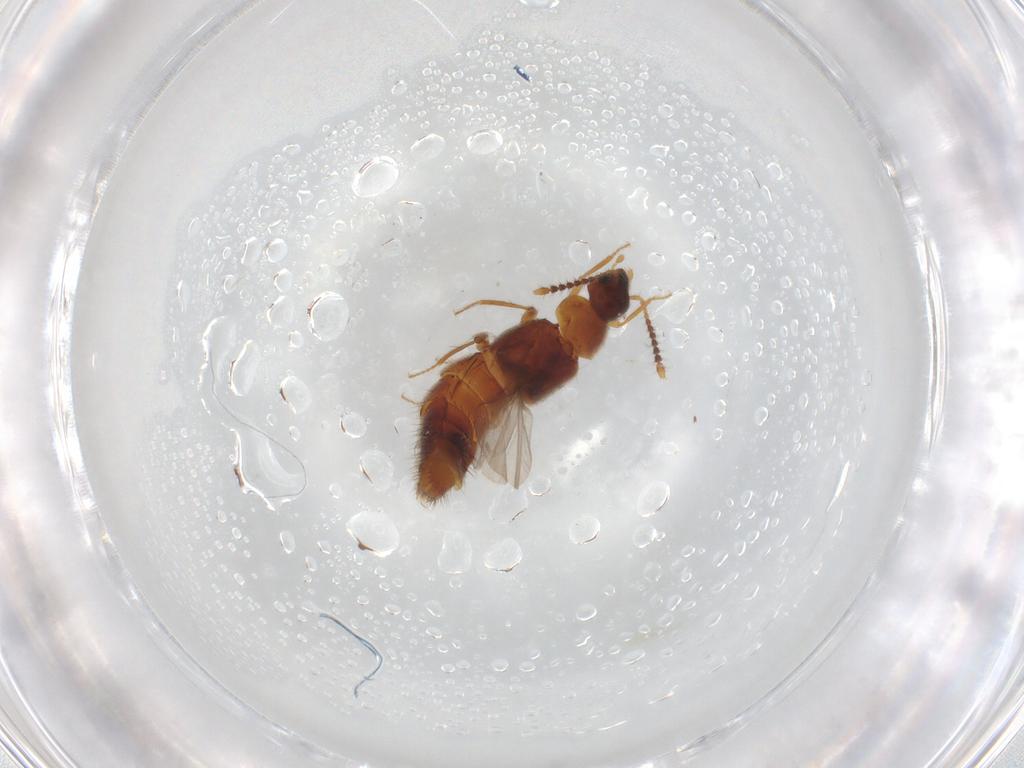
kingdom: Animalia
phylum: Arthropoda
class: Insecta
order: Coleoptera
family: Staphylinidae
